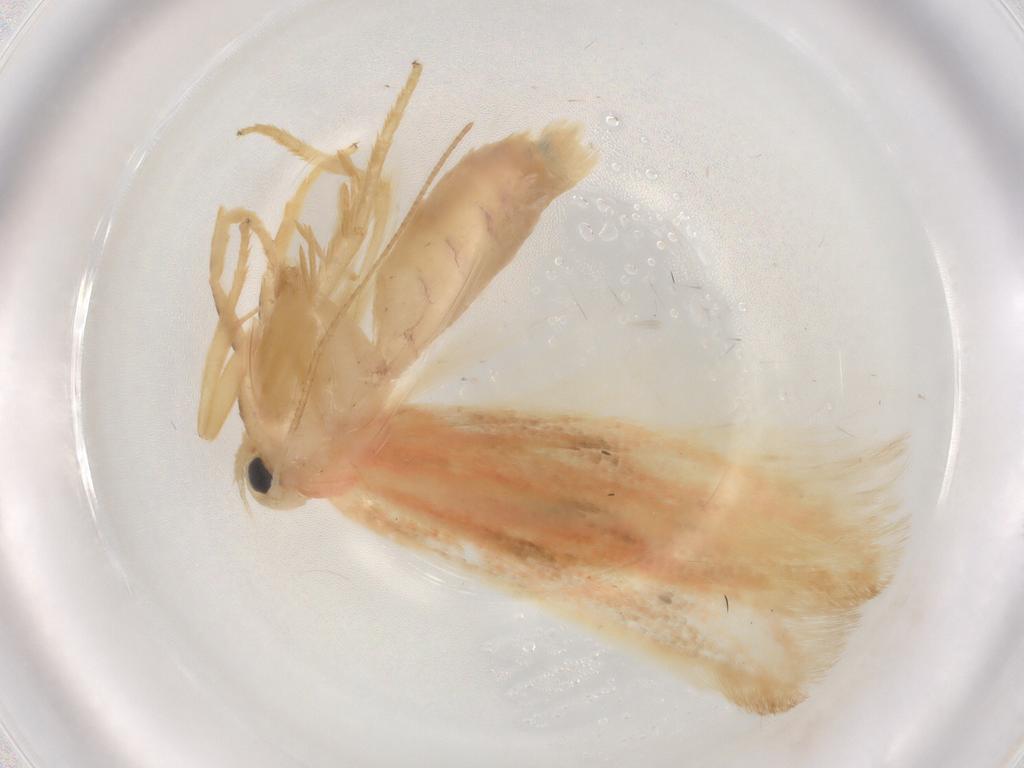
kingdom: Animalia
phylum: Arthropoda
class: Insecta
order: Lepidoptera
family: Geometridae
